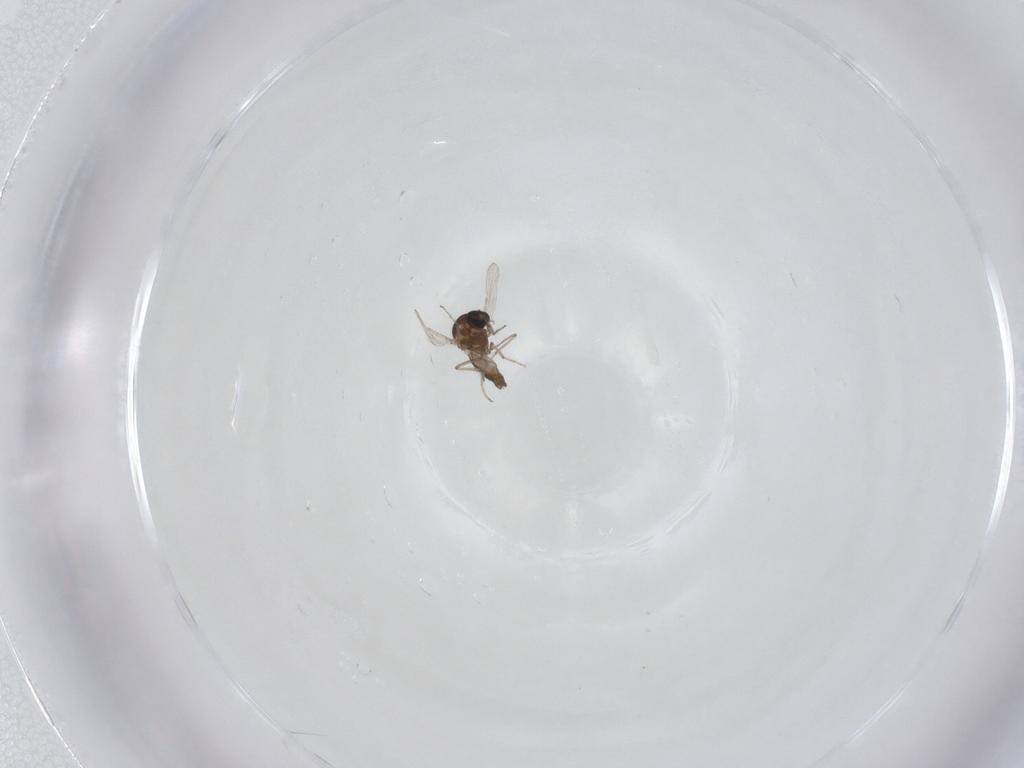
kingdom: Animalia
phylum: Arthropoda
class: Insecta
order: Diptera
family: Ceratopogonidae
